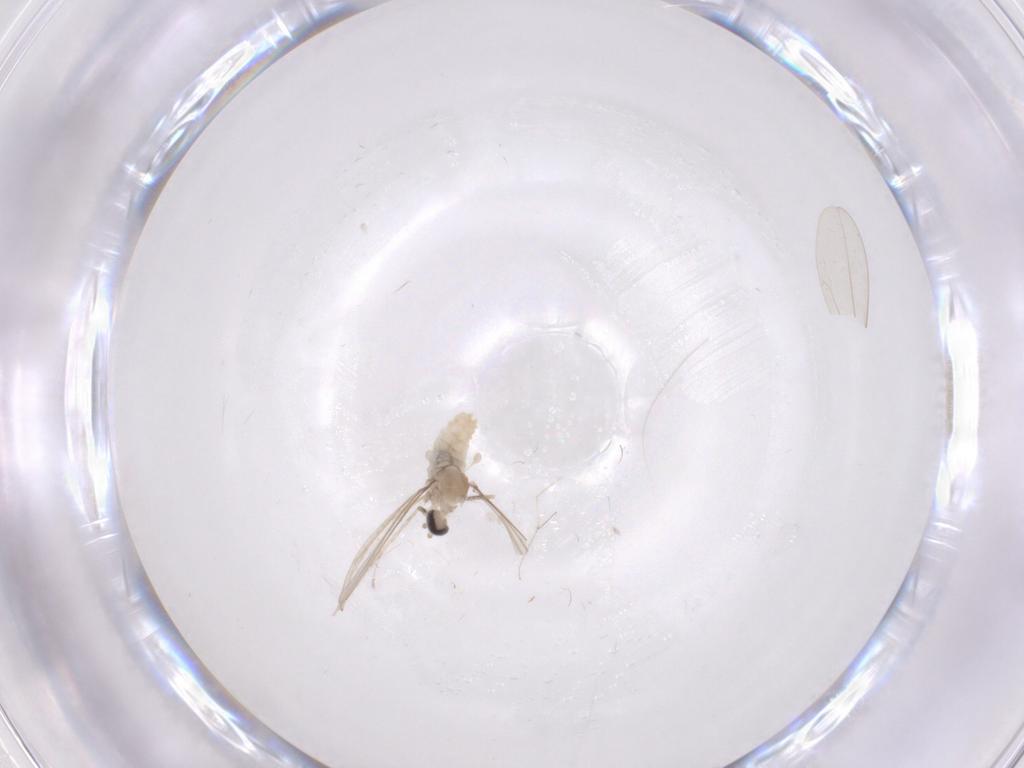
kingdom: Animalia
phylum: Arthropoda
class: Insecta
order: Diptera
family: Cecidomyiidae
